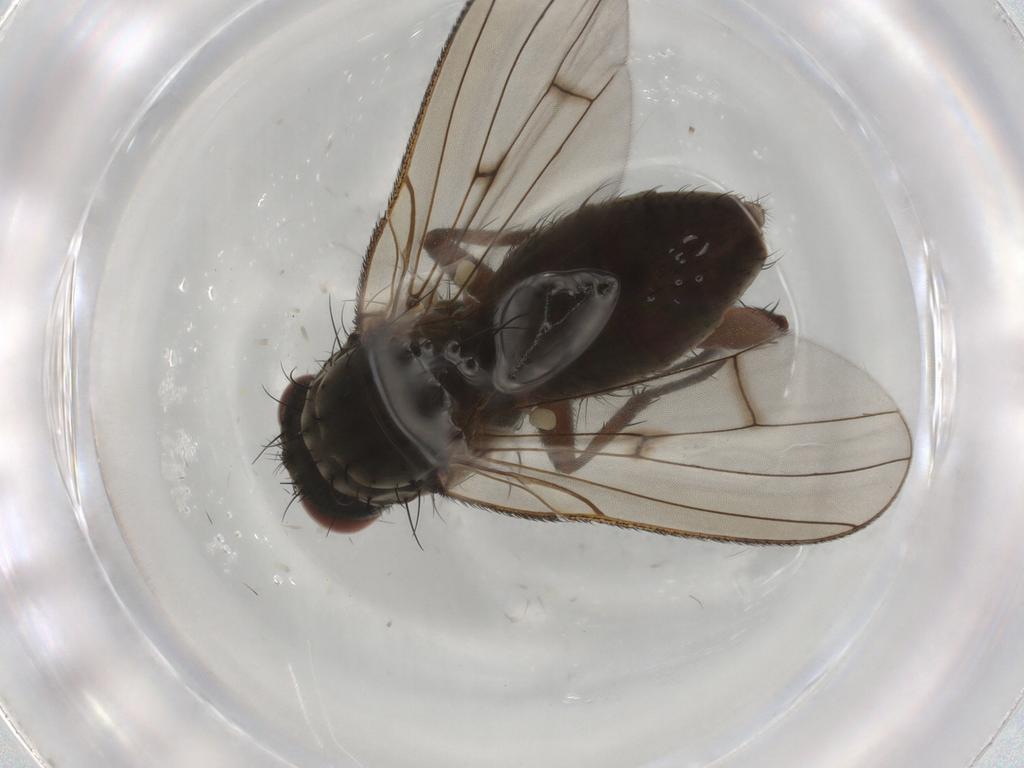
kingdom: Animalia
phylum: Arthropoda
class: Insecta
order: Diptera
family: Anthomyiidae
